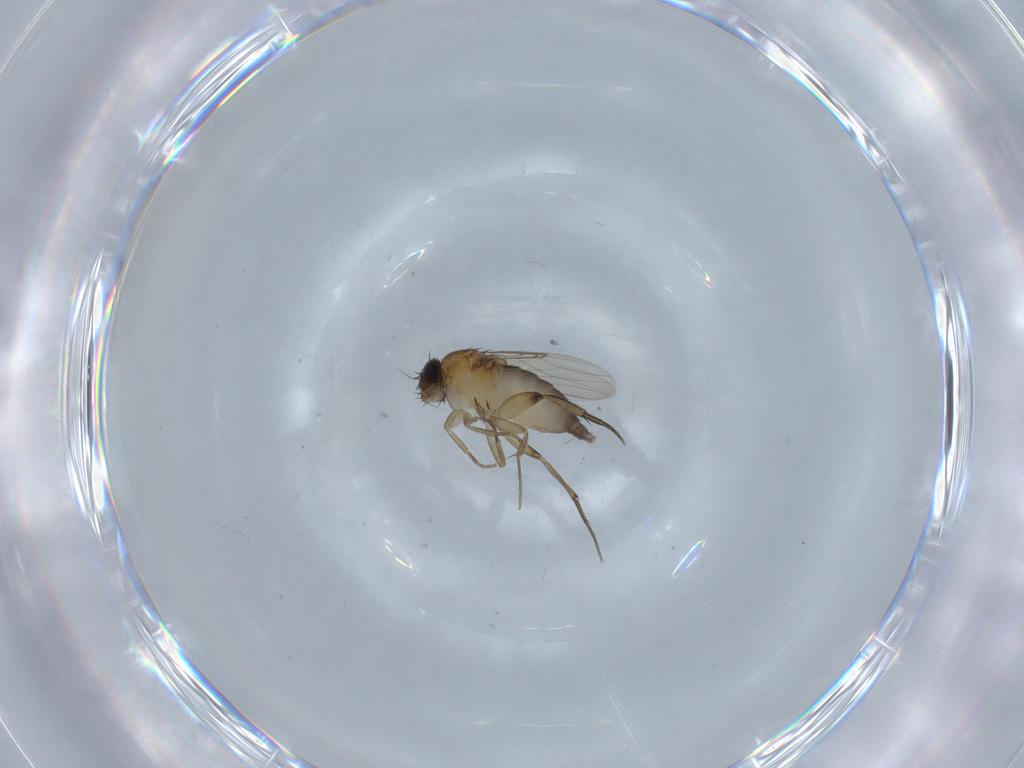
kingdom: Animalia
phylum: Arthropoda
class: Insecta
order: Diptera
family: Phoridae
